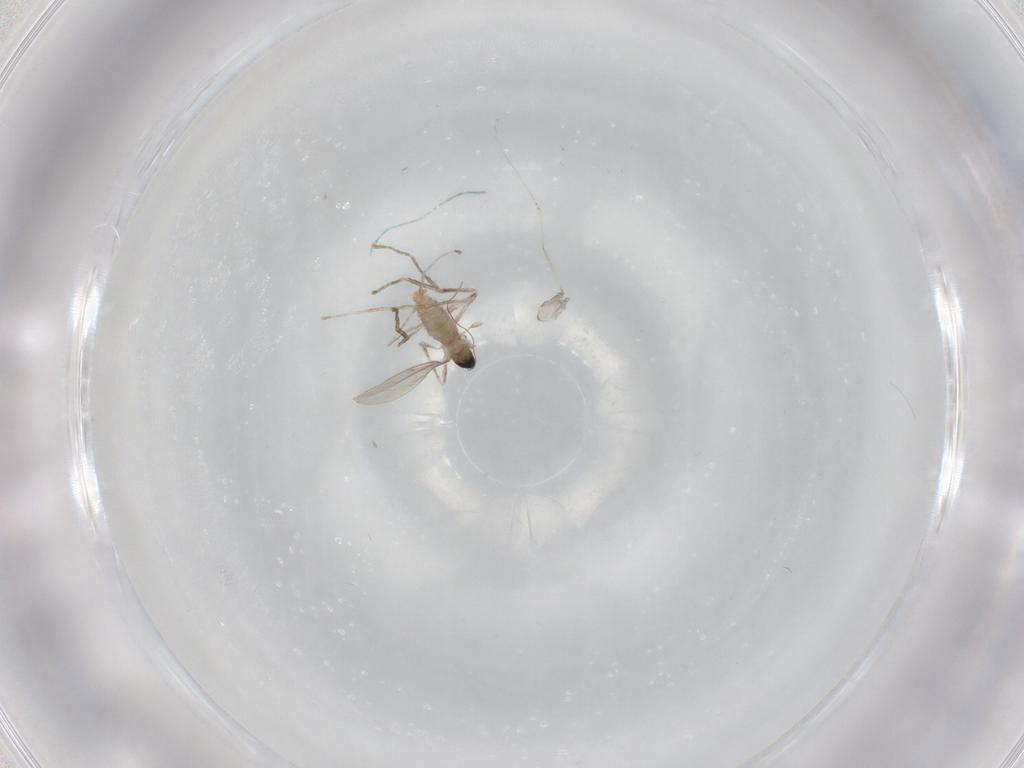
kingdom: Animalia
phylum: Arthropoda
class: Insecta
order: Diptera
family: Cecidomyiidae
